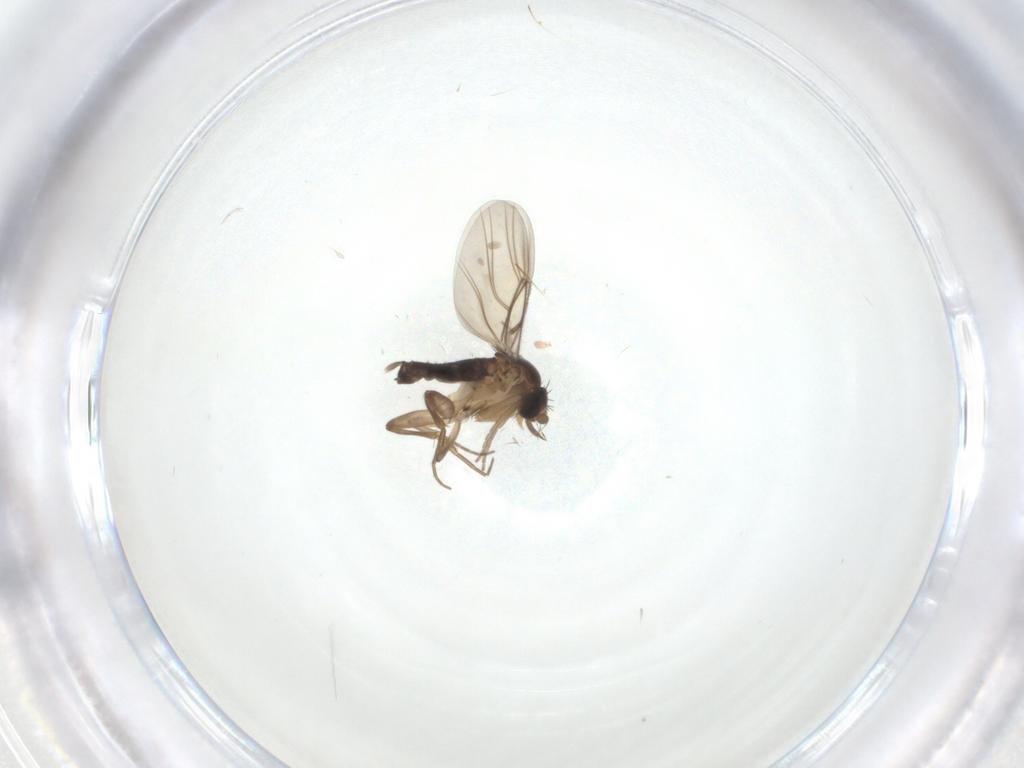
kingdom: Animalia
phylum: Arthropoda
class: Insecta
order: Diptera
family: Phoridae
